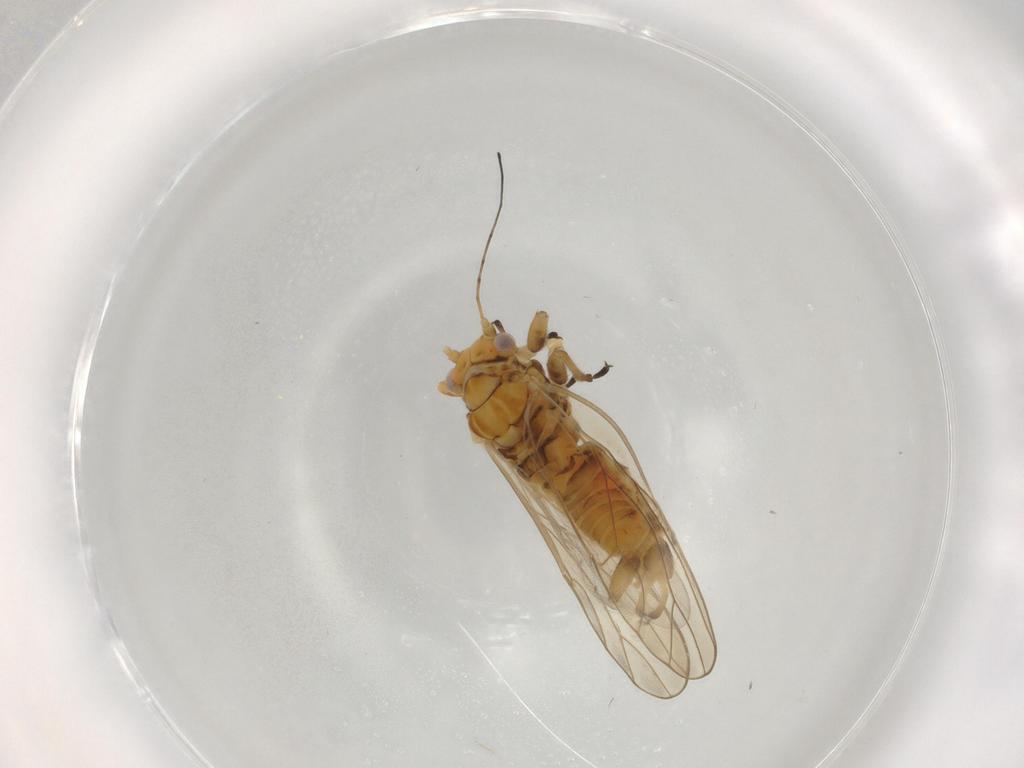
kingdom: Animalia
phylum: Arthropoda
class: Insecta
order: Hemiptera
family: Psyllidae
